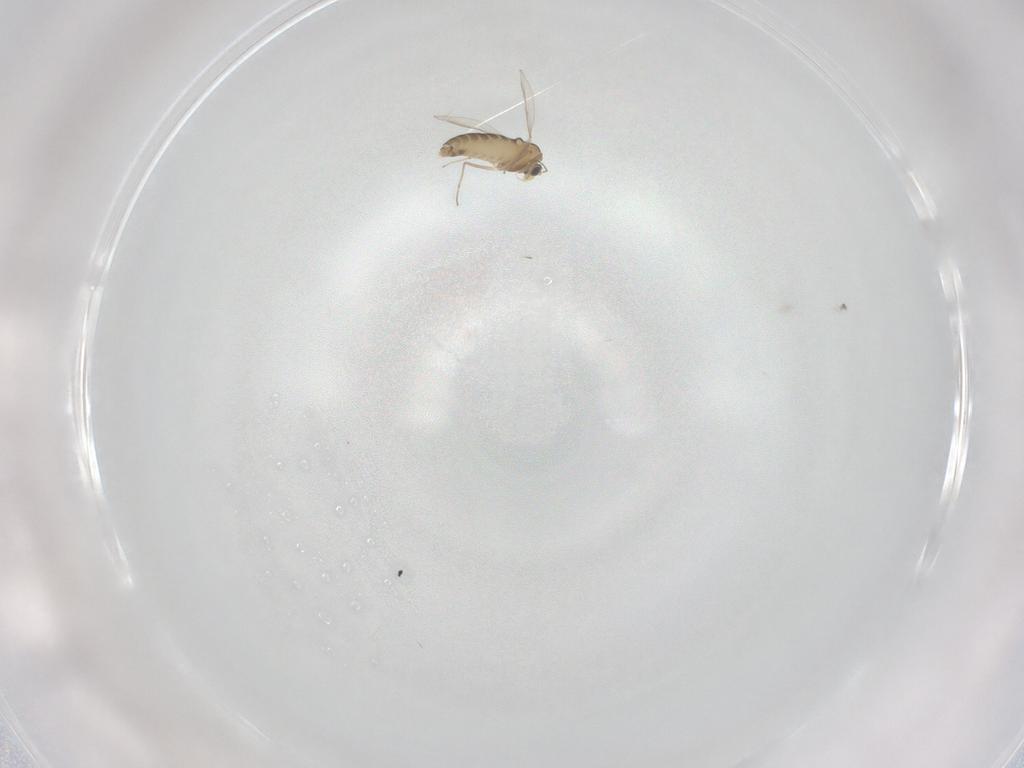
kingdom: Animalia
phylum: Arthropoda
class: Insecta
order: Diptera
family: Chironomidae
